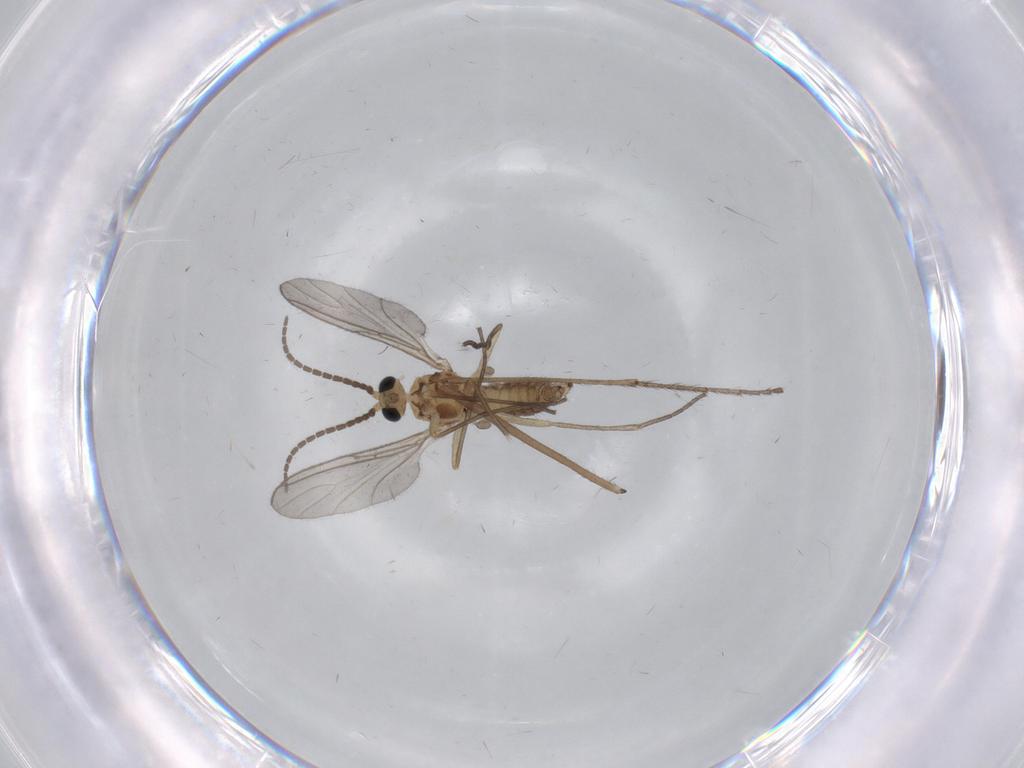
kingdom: Animalia
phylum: Arthropoda
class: Insecta
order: Diptera
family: Sciaridae
